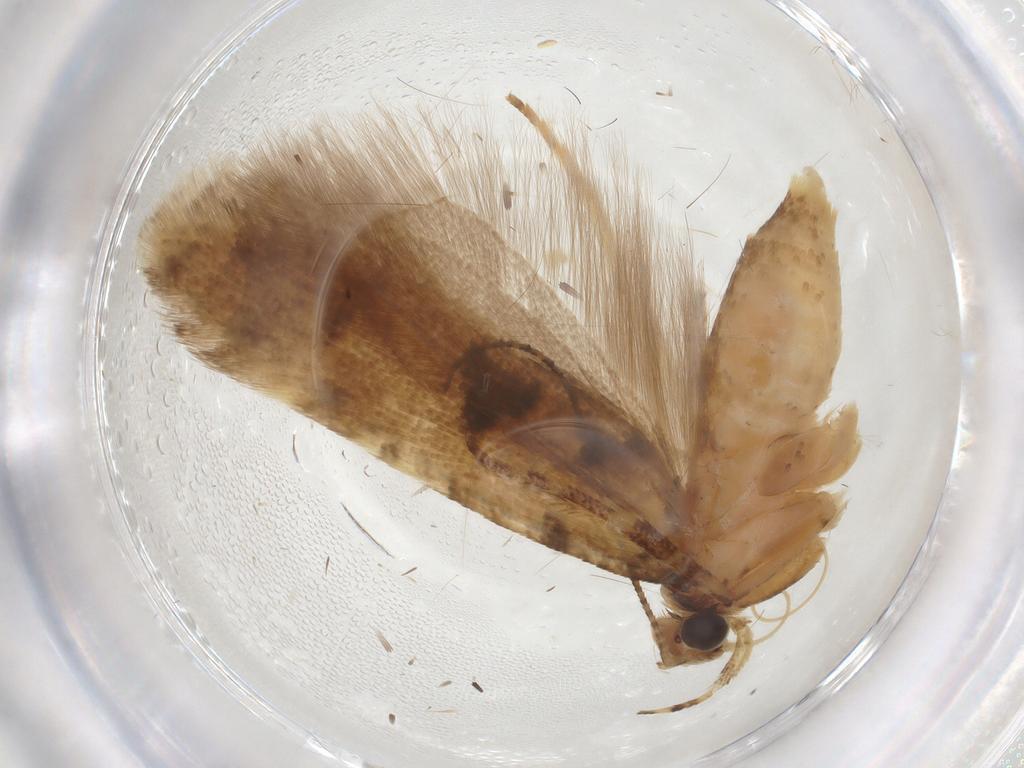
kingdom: Animalia
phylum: Arthropoda
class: Insecta
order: Lepidoptera
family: Gelechiidae
